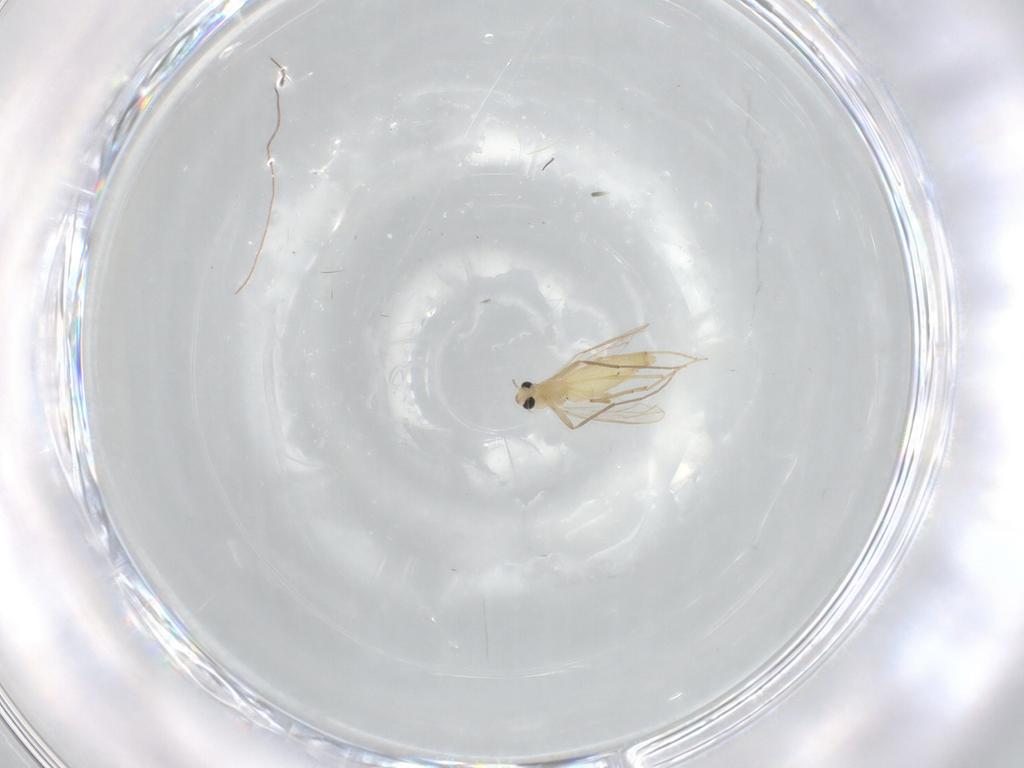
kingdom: Animalia
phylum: Arthropoda
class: Insecta
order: Diptera
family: Chironomidae
